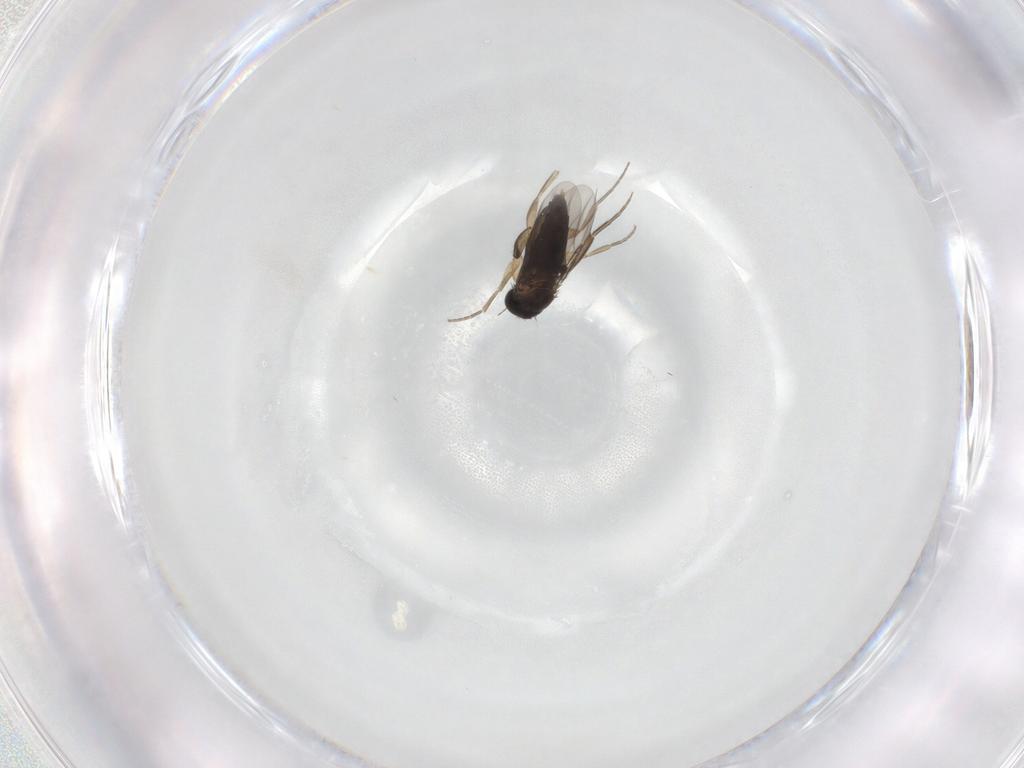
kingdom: Animalia
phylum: Arthropoda
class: Insecta
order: Diptera
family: Phoridae
